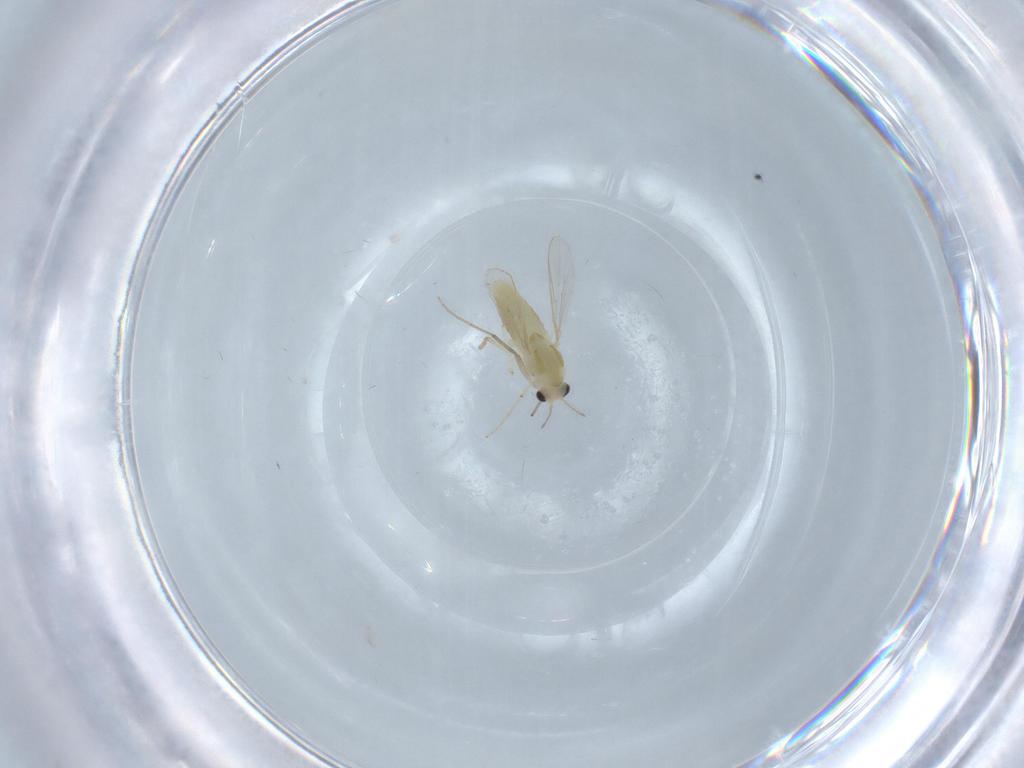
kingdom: Animalia
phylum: Arthropoda
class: Insecta
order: Diptera
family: Chironomidae
